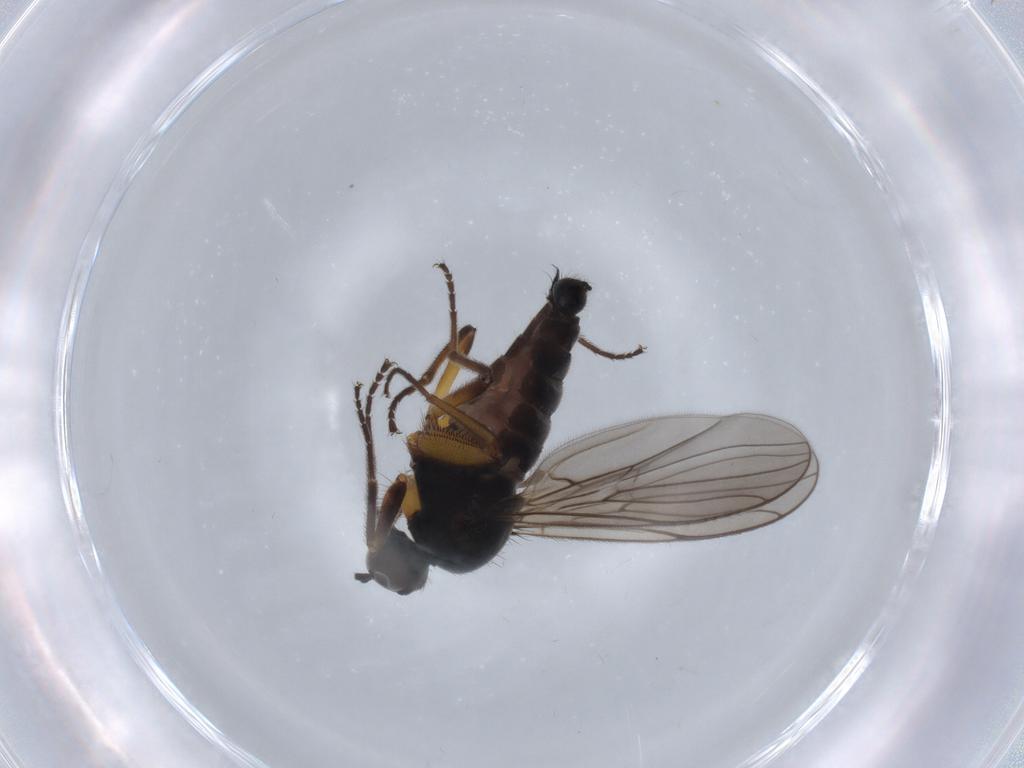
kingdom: Animalia
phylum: Arthropoda
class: Insecta
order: Diptera
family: Hybotidae
